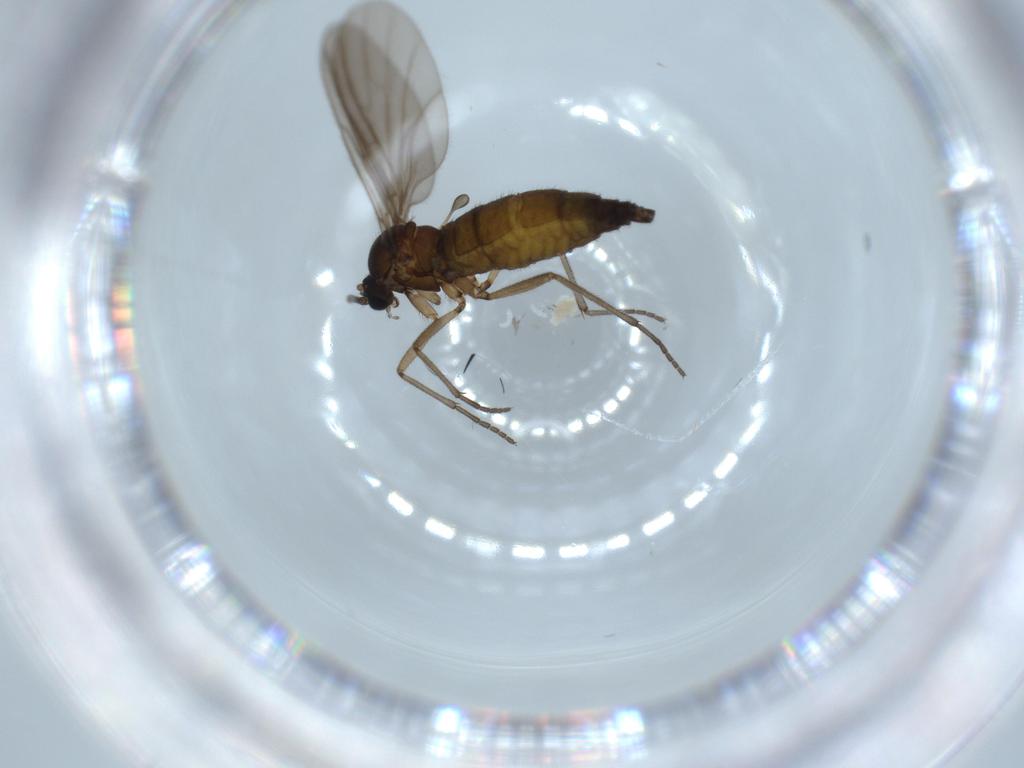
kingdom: Animalia
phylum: Arthropoda
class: Insecta
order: Diptera
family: Sciaridae
